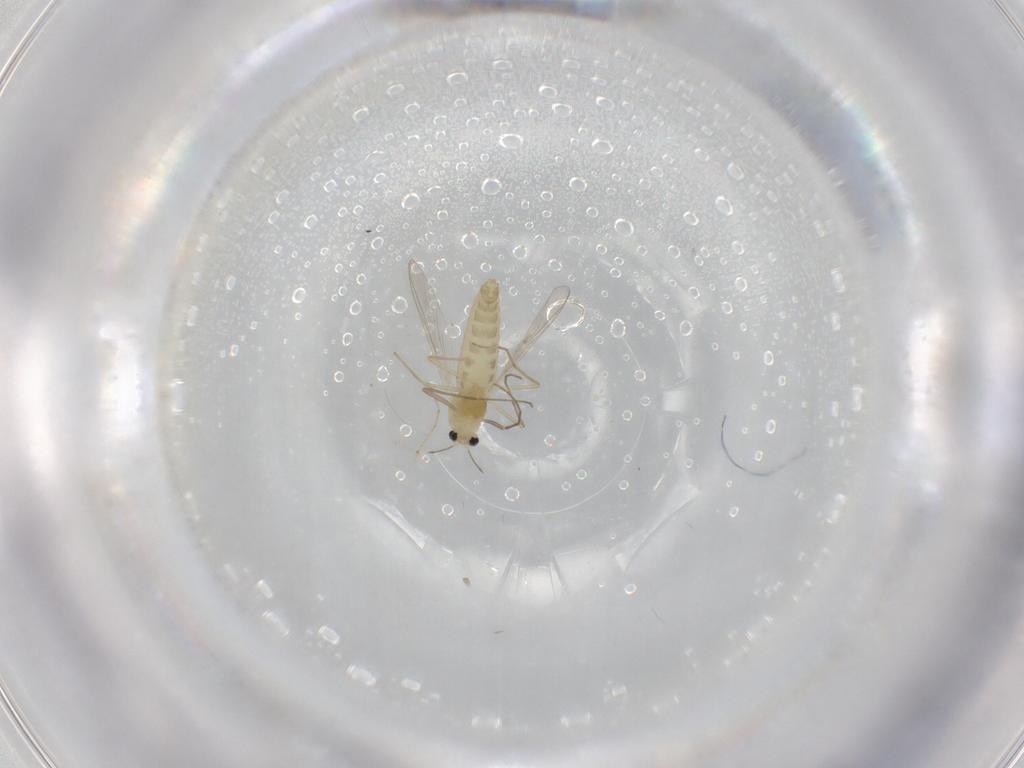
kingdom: Animalia
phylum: Arthropoda
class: Insecta
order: Diptera
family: Chironomidae
